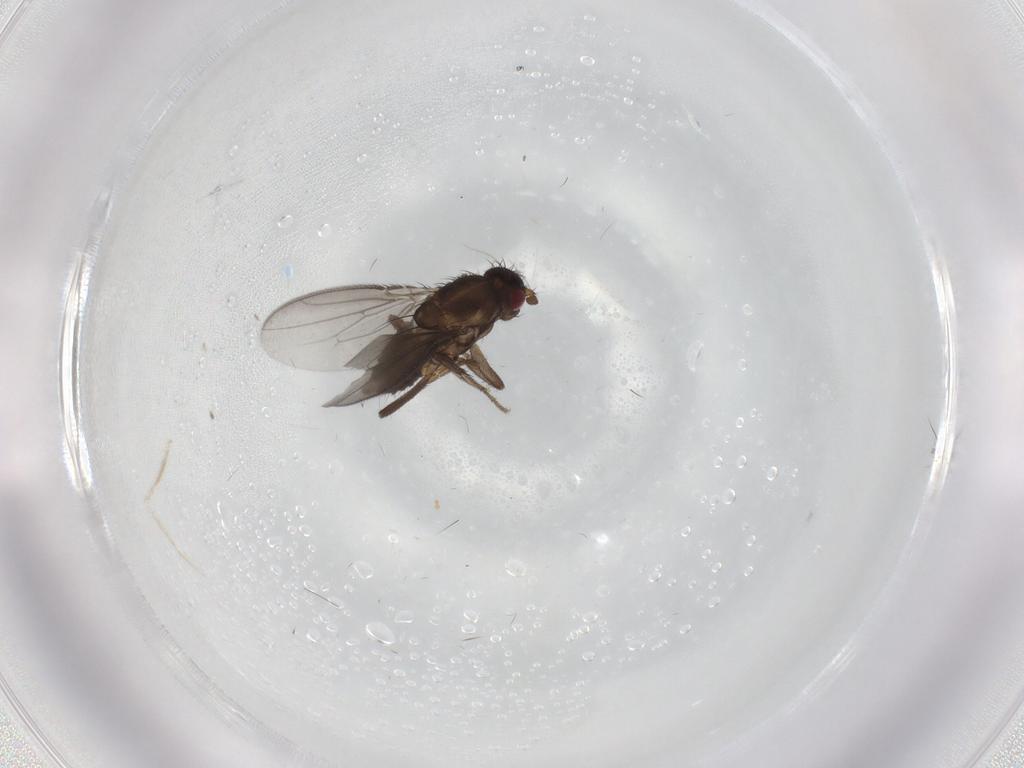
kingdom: Animalia
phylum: Arthropoda
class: Insecta
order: Diptera
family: Sphaeroceridae
